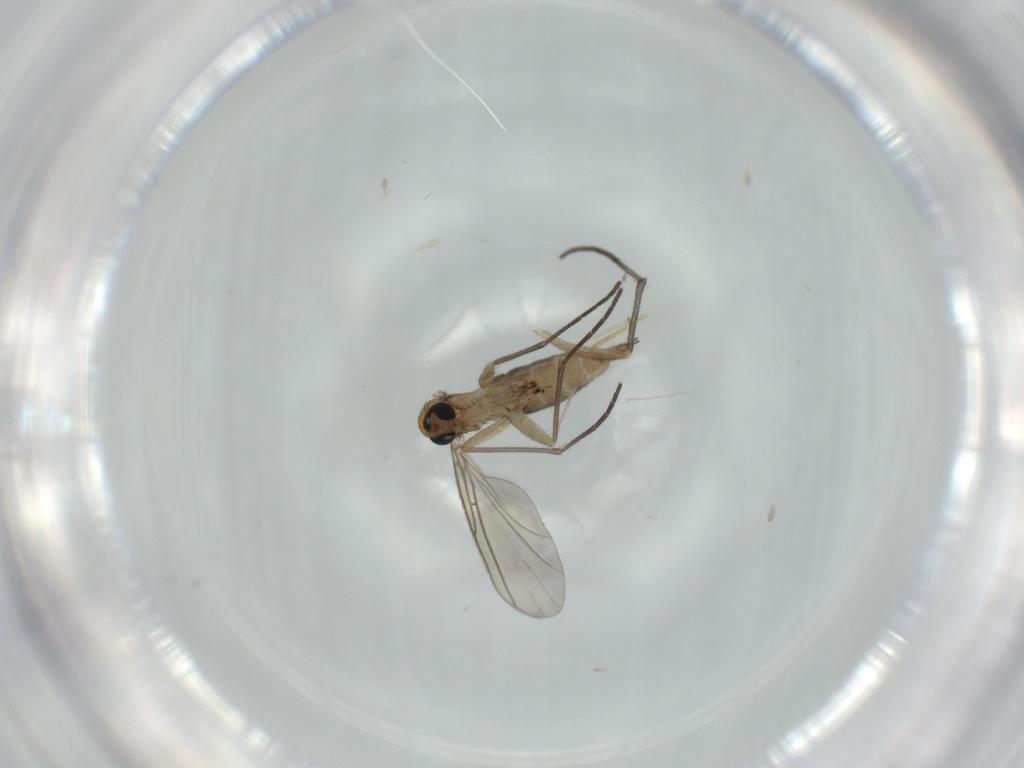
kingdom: Animalia
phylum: Arthropoda
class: Insecta
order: Diptera
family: Sciaridae
